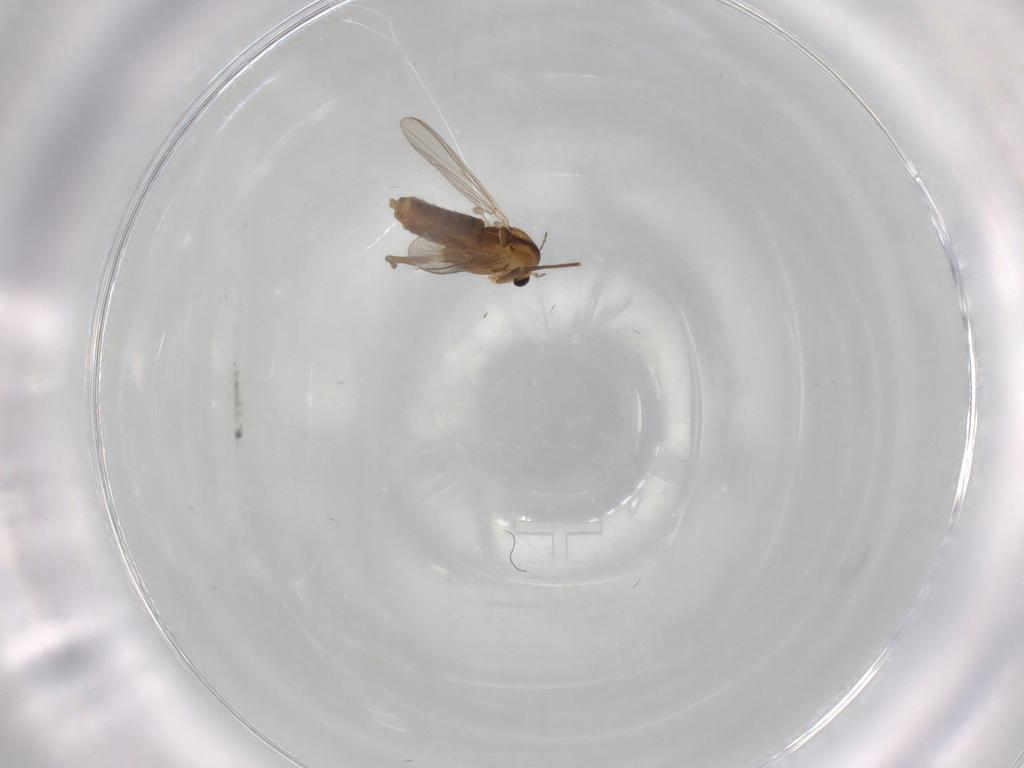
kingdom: Animalia
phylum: Arthropoda
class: Insecta
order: Diptera
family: Chironomidae
